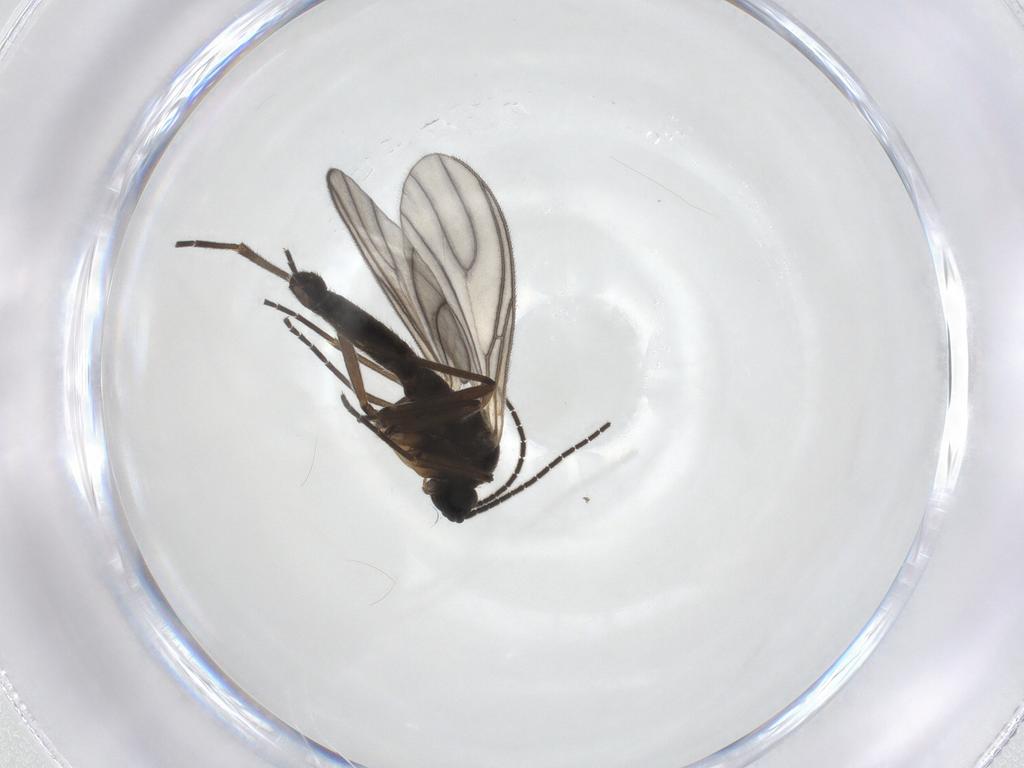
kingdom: Animalia
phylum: Arthropoda
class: Insecta
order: Diptera
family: Sciaridae
